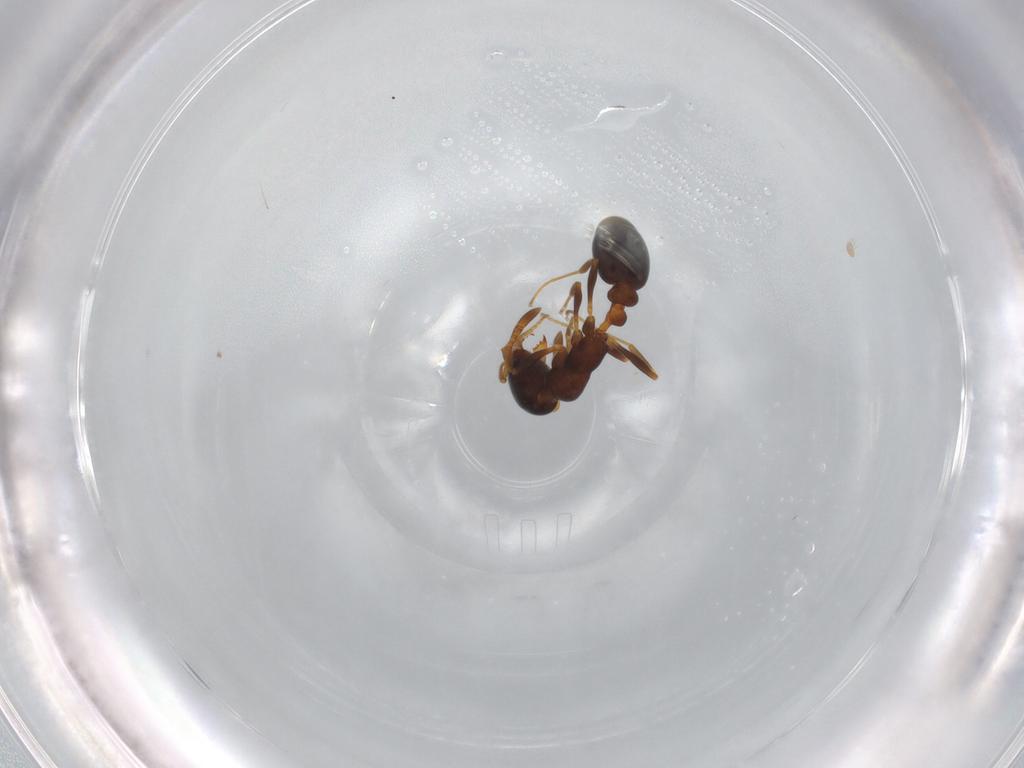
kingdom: Animalia
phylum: Arthropoda
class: Insecta
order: Hymenoptera
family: Formicidae
